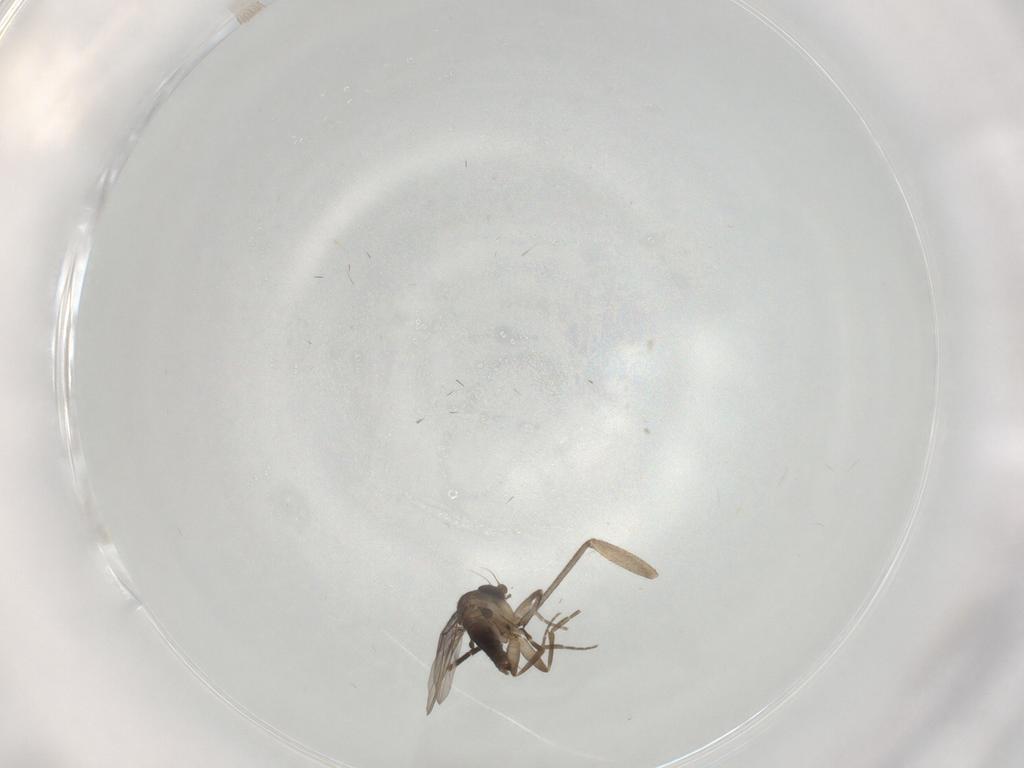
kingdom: Animalia
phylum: Arthropoda
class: Insecta
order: Diptera
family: Sciaridae
